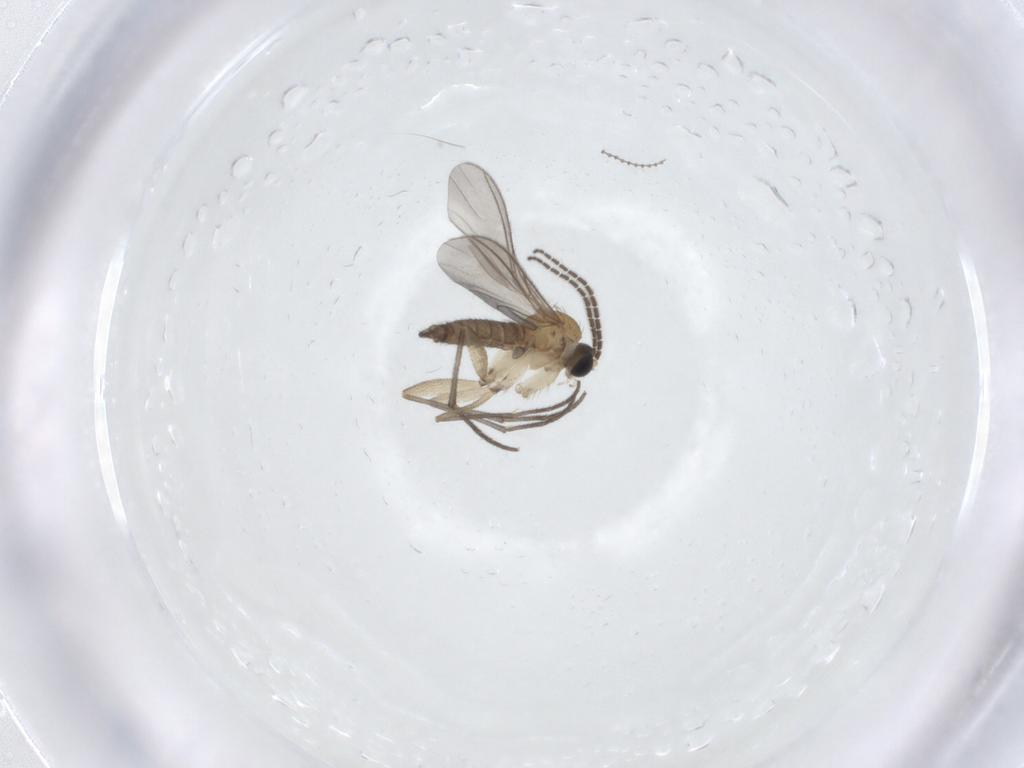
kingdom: Animalia
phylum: Arthropoda
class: Insecta
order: Diptera
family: Sciaridae
